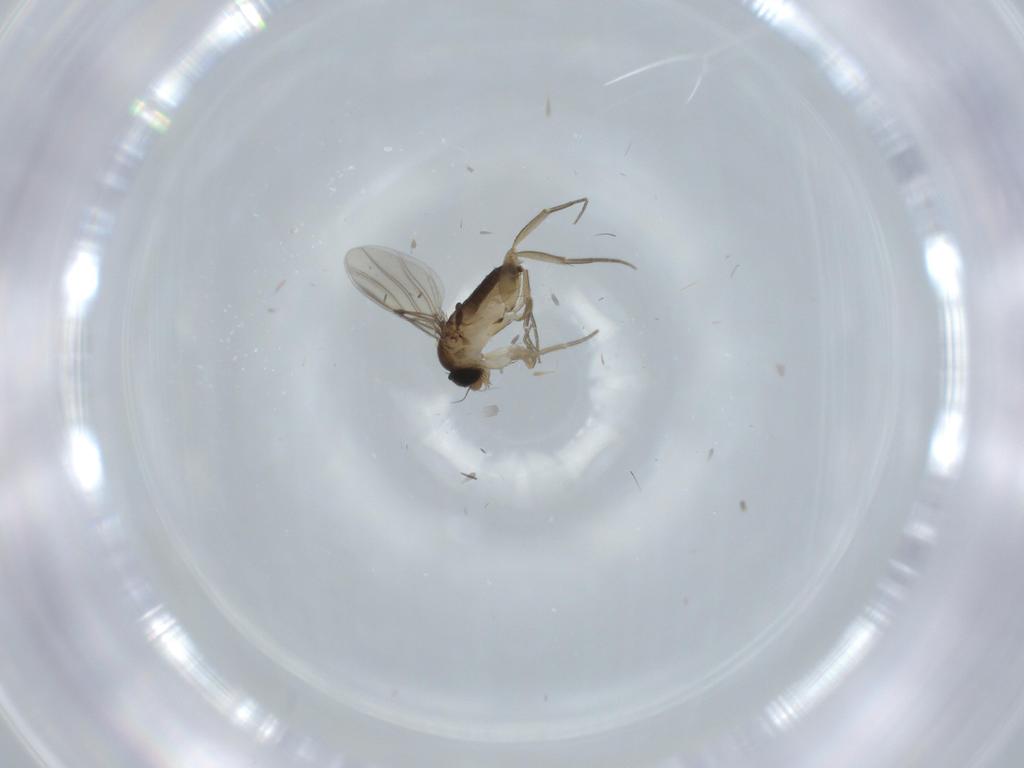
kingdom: Animalia
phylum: Arthropoda
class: Insecta
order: Diptera
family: Phoridae
